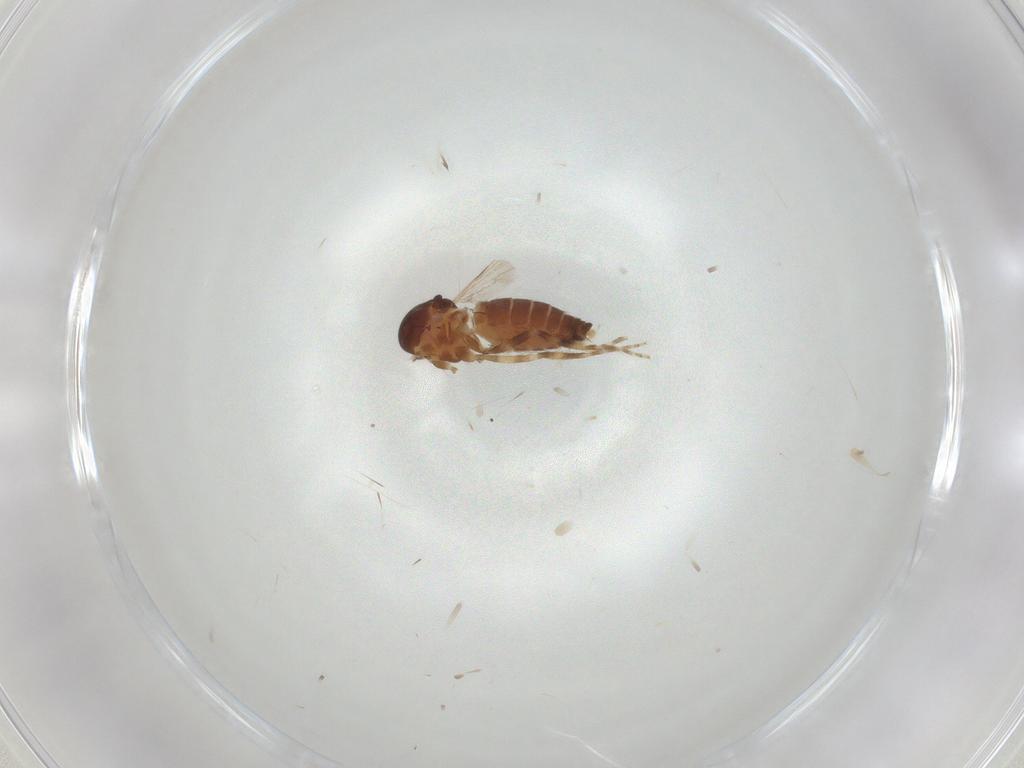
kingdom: Animalia
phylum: Arthropoda
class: Insecta
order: Diptera
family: Ceratopogonidae
